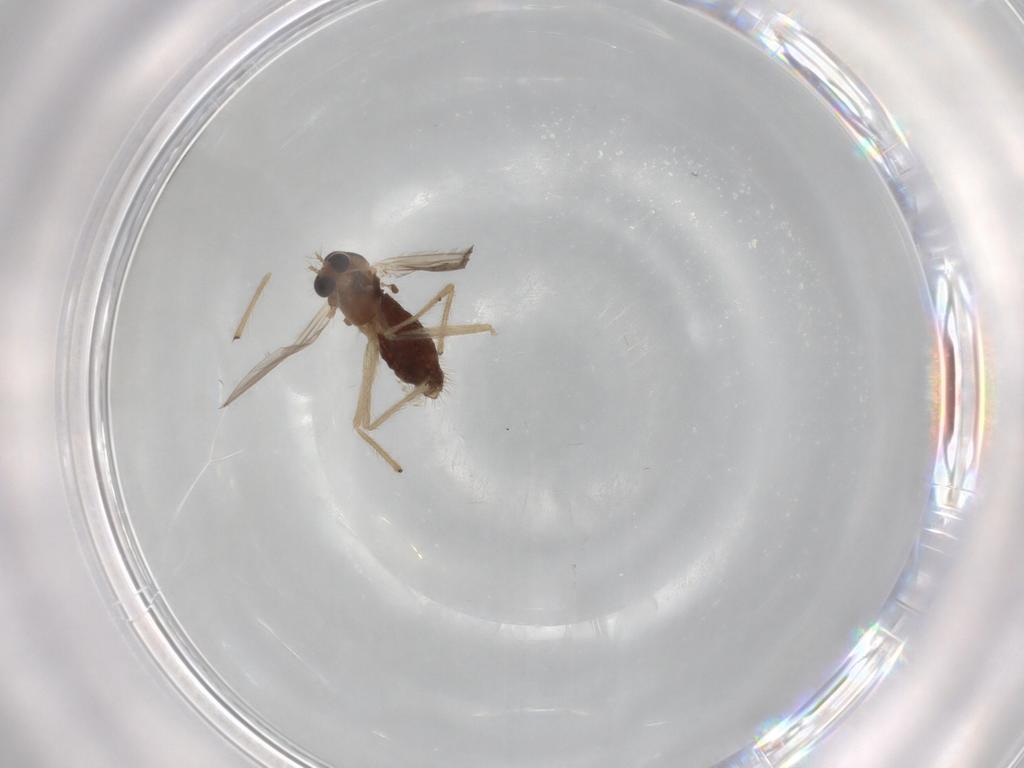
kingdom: Animalia
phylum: Arthropoda
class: Insecta
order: Diptera
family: Chironomidae
